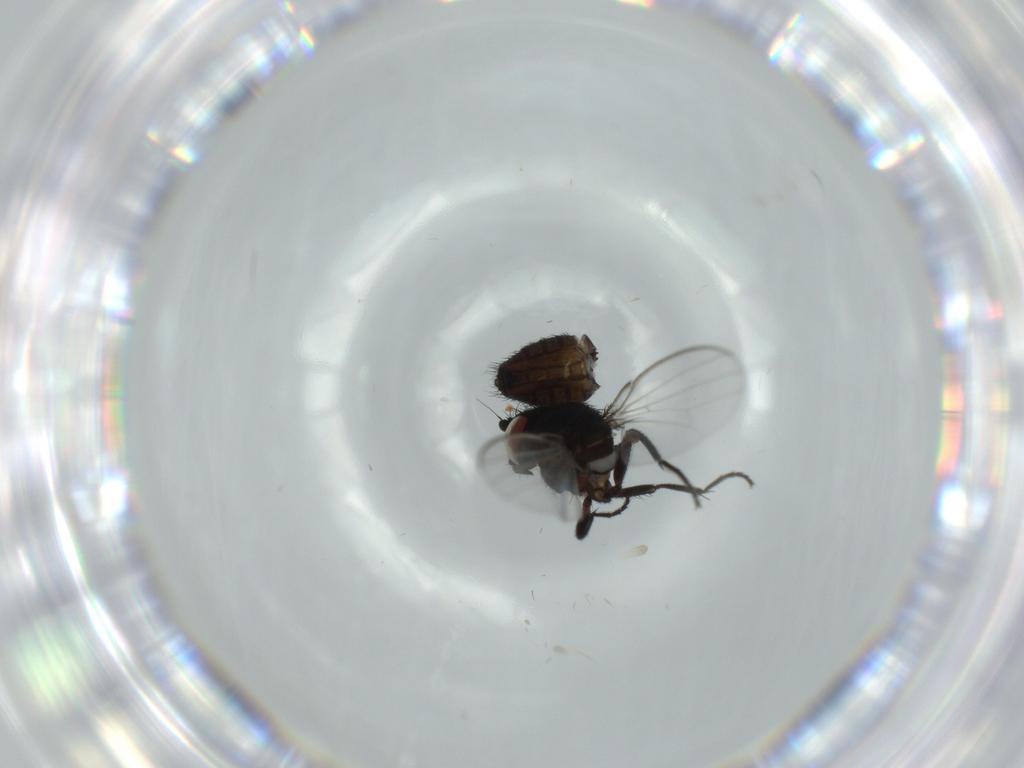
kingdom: Animalia
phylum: Arthropoda
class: Insecta
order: Diptera
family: Milichiidae
